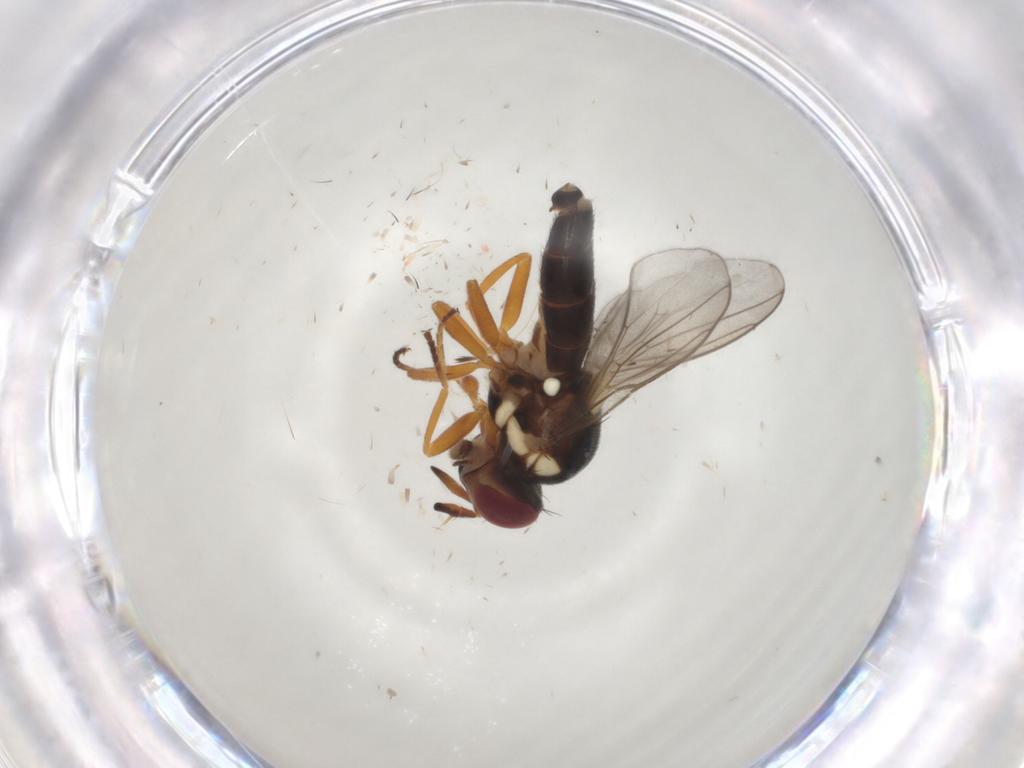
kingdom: Animalia
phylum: Arthropoda
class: Insecta
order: Diptera
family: Chloropidae
